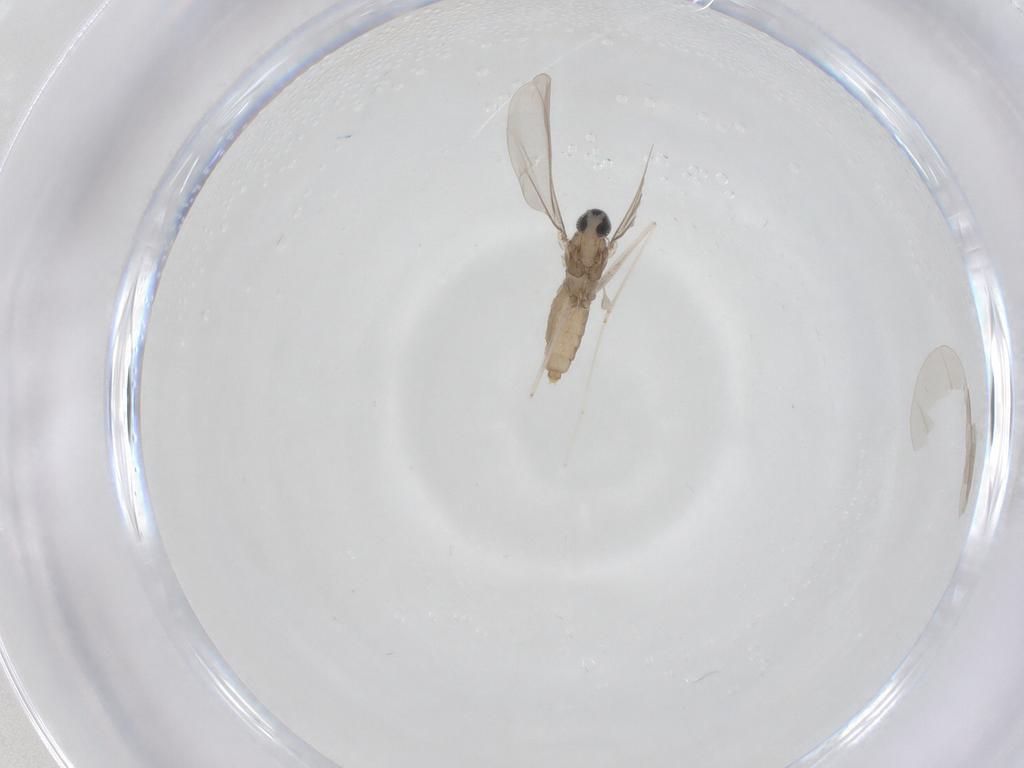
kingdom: Animalia
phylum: Arthropoda
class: Insecta
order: Diptera
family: Cecidomyiidae
